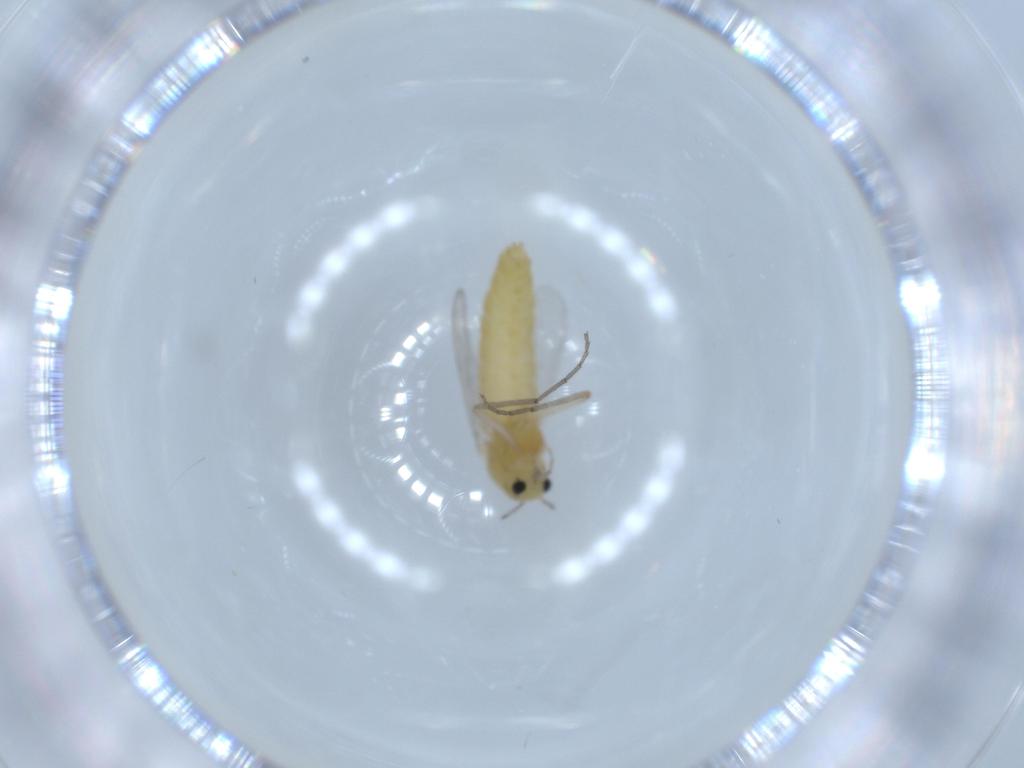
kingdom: Animalia
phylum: Arthropoda
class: Insecta
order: Diptera
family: Chironomidae
